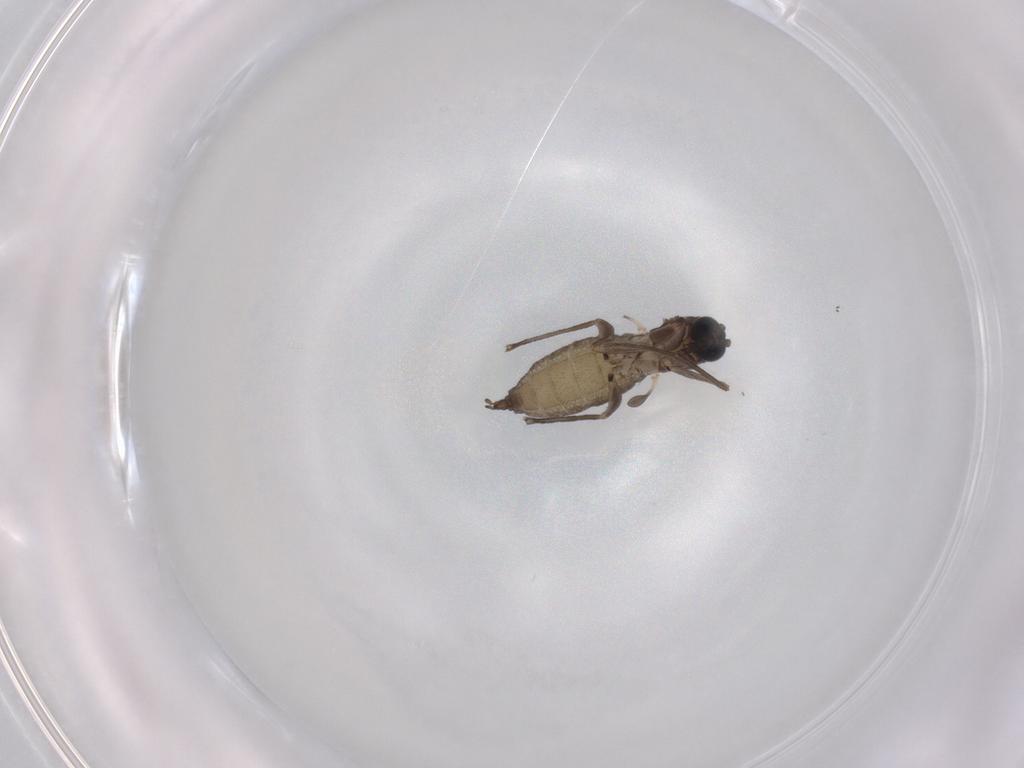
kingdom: Animalia
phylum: Arthropoda
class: Insecta
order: Diptera
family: Sciaridae
